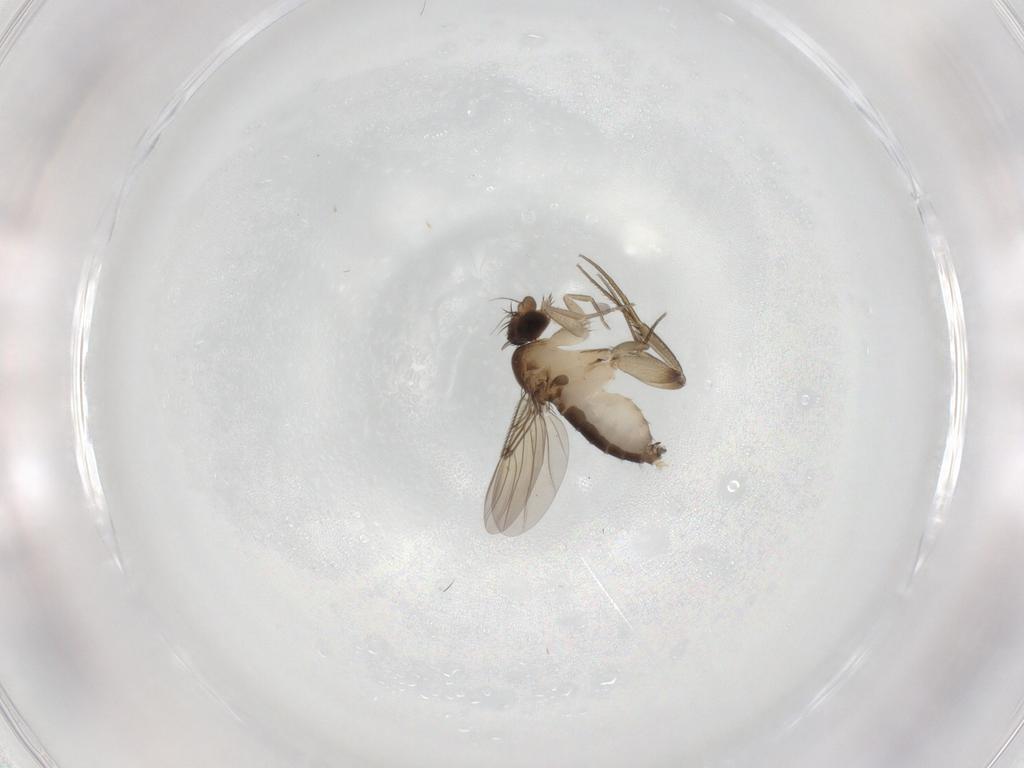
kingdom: Animalia
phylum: Arthropoda
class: Insecta
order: Diptera
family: Phoridae
